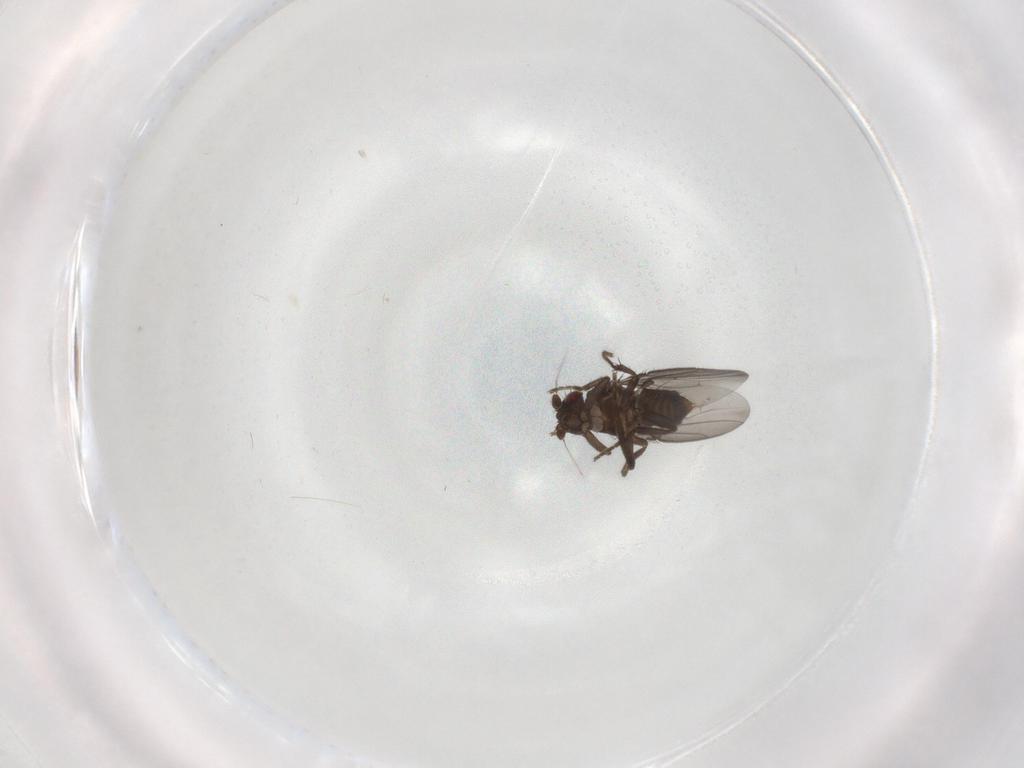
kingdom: Animalia
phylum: Arthropoda
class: Insecta
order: Diptera
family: Sphaeroceridae
